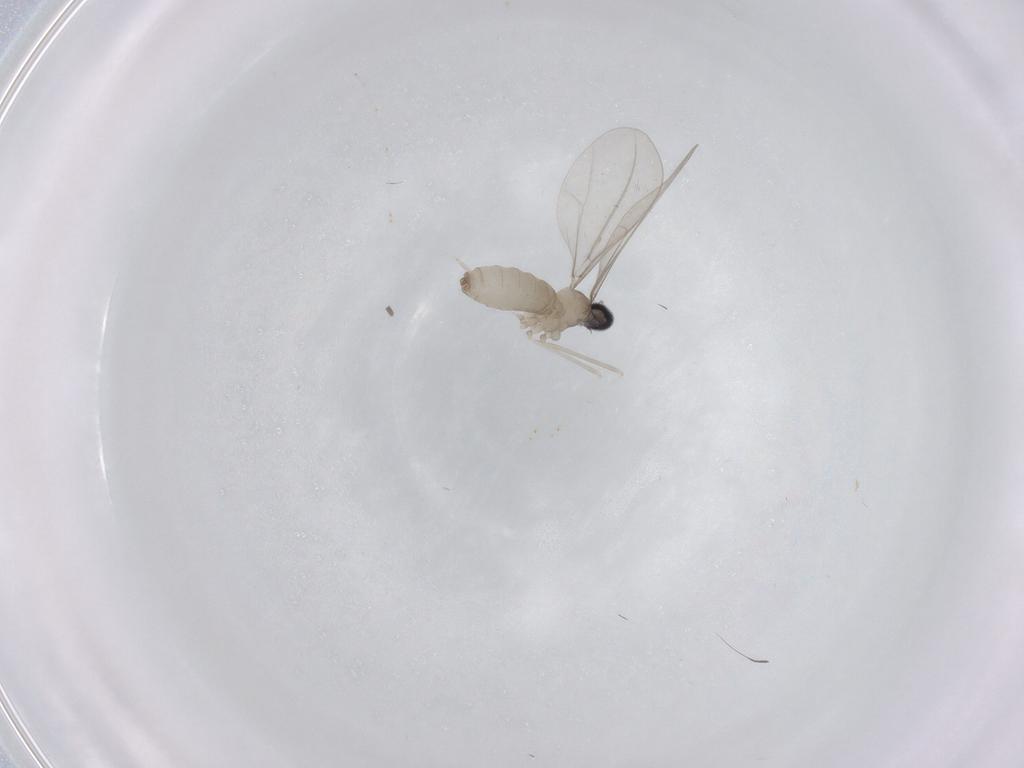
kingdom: Animalia
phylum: Arthropoda
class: Insecta
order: Diptera
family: Cecidomyiidae
